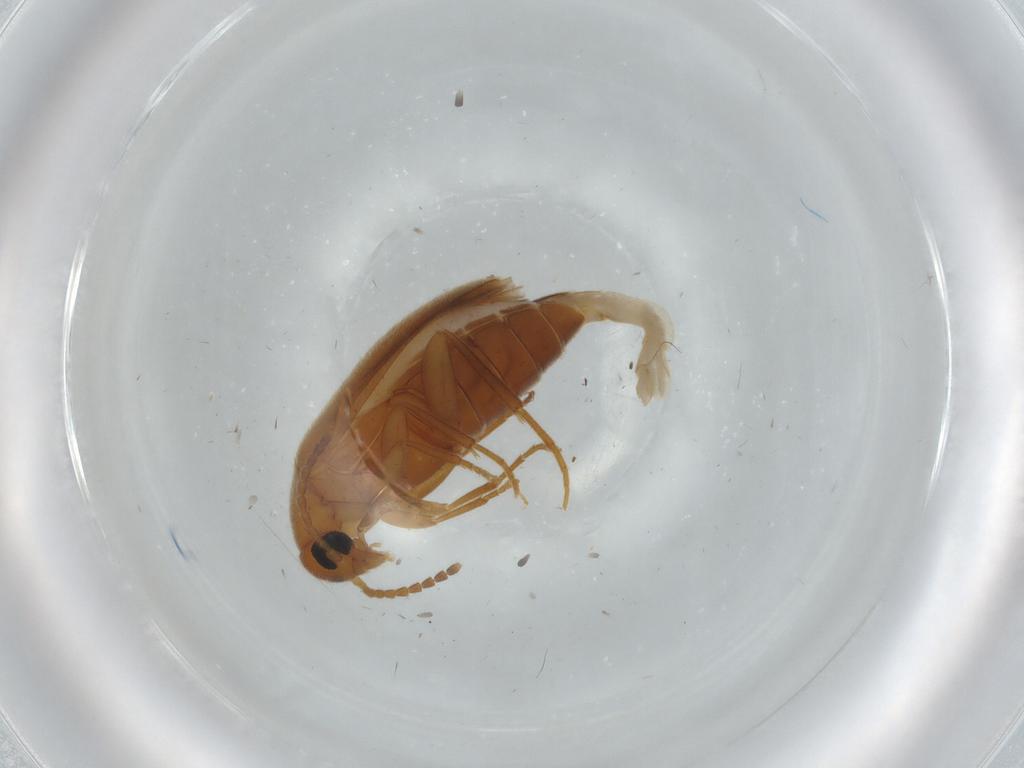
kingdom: Animalia
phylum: Arthropoda
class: Insecta
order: Coleoptera
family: Scraptiidae
